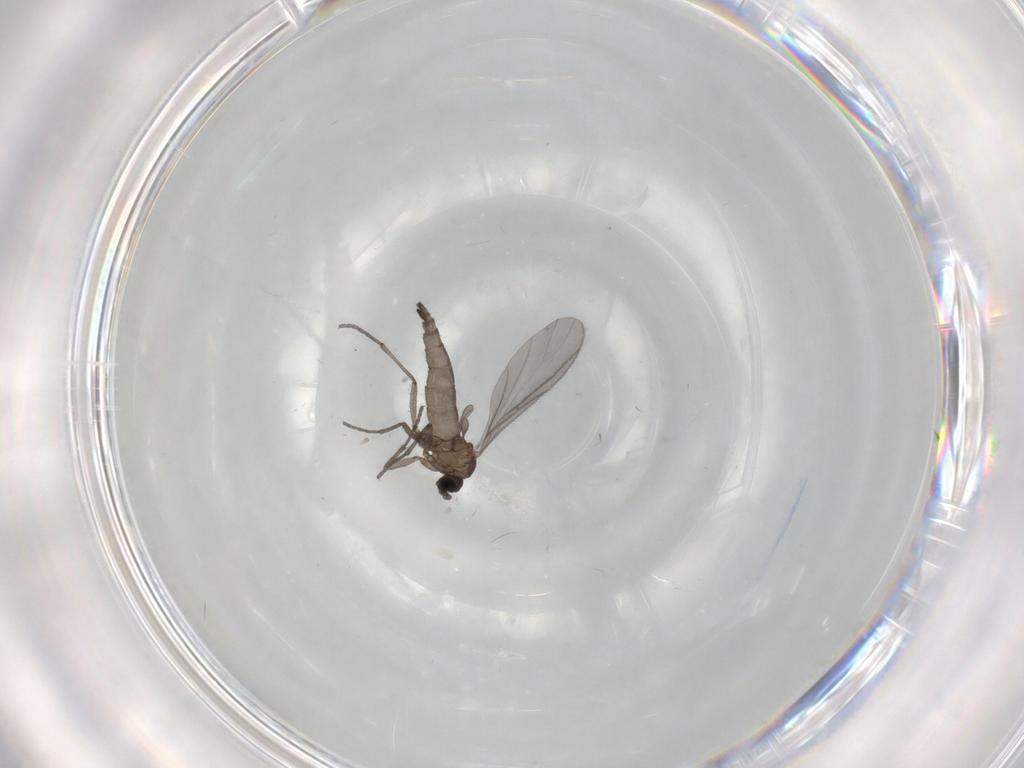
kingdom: Animalia
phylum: Arthropoda
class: Insecta
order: Diptera
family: Sciaridae
